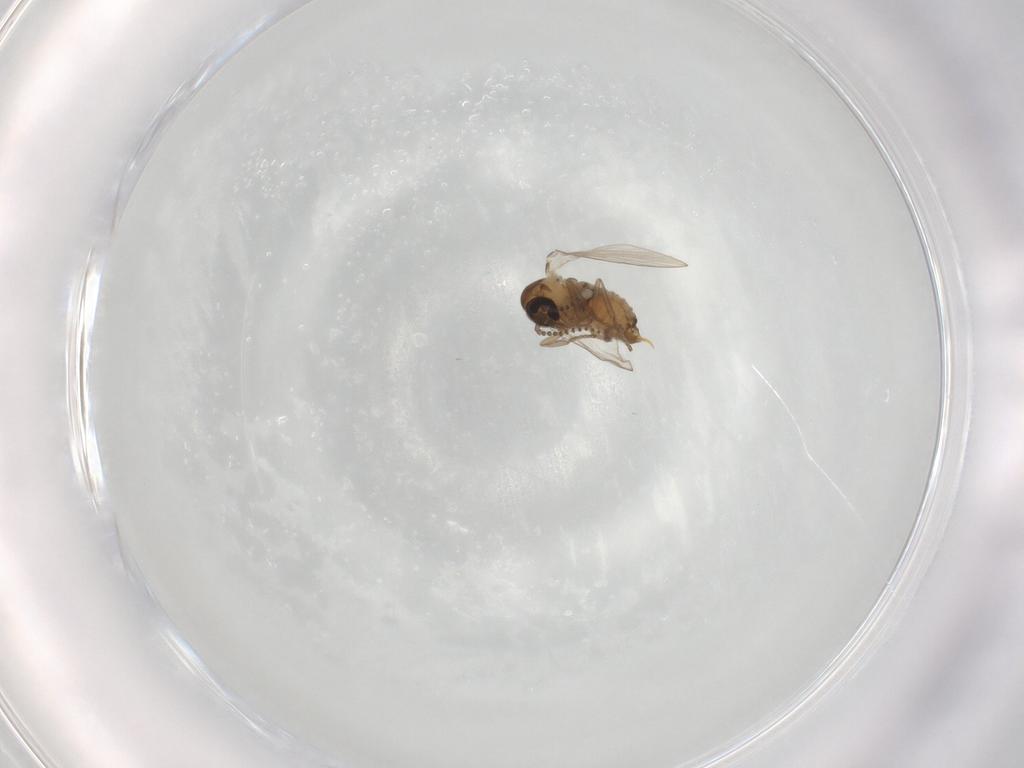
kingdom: Animalia
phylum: Arthropoda
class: Insecta
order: Diptera
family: Psychodidae
